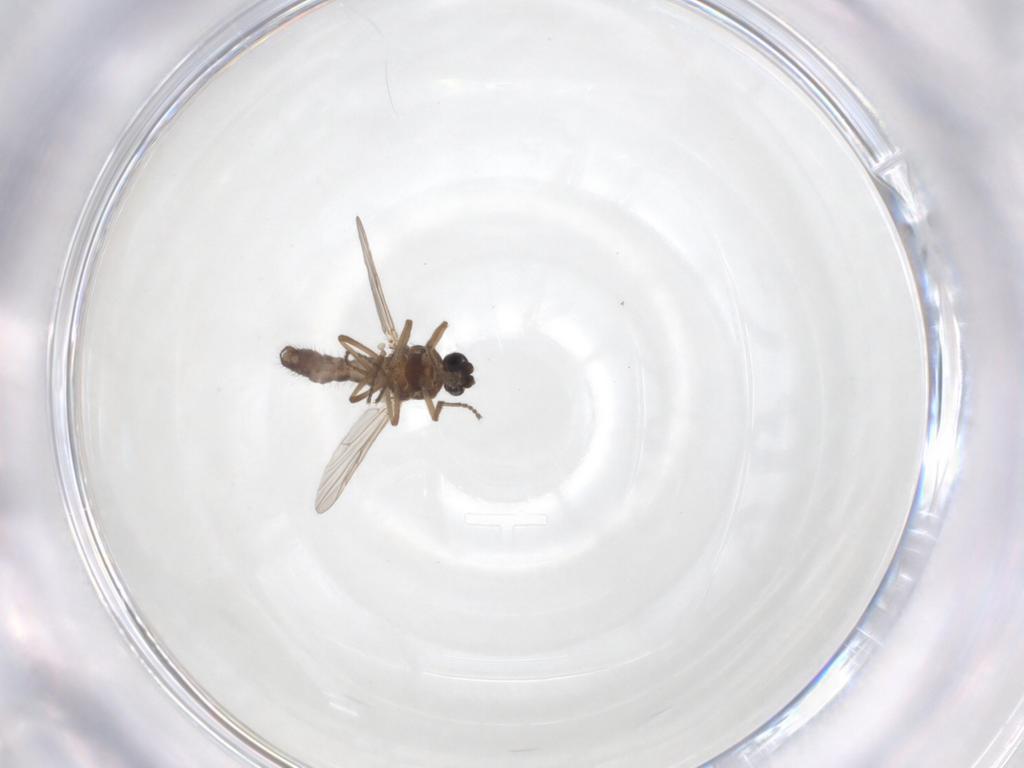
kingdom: Animalia
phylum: Arthropoda
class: Insecta
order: Diptera
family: Ceratopogonidae
